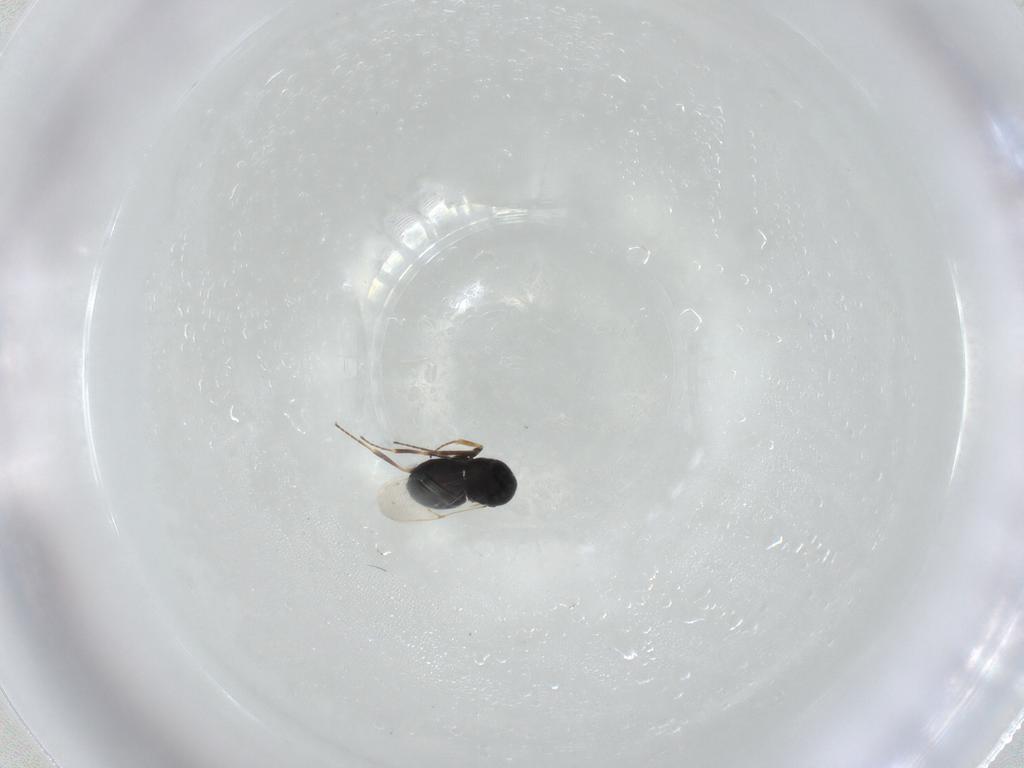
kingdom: Animalia
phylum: Arthropoda
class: Insecta
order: Hymenoptera
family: Scelionidae
